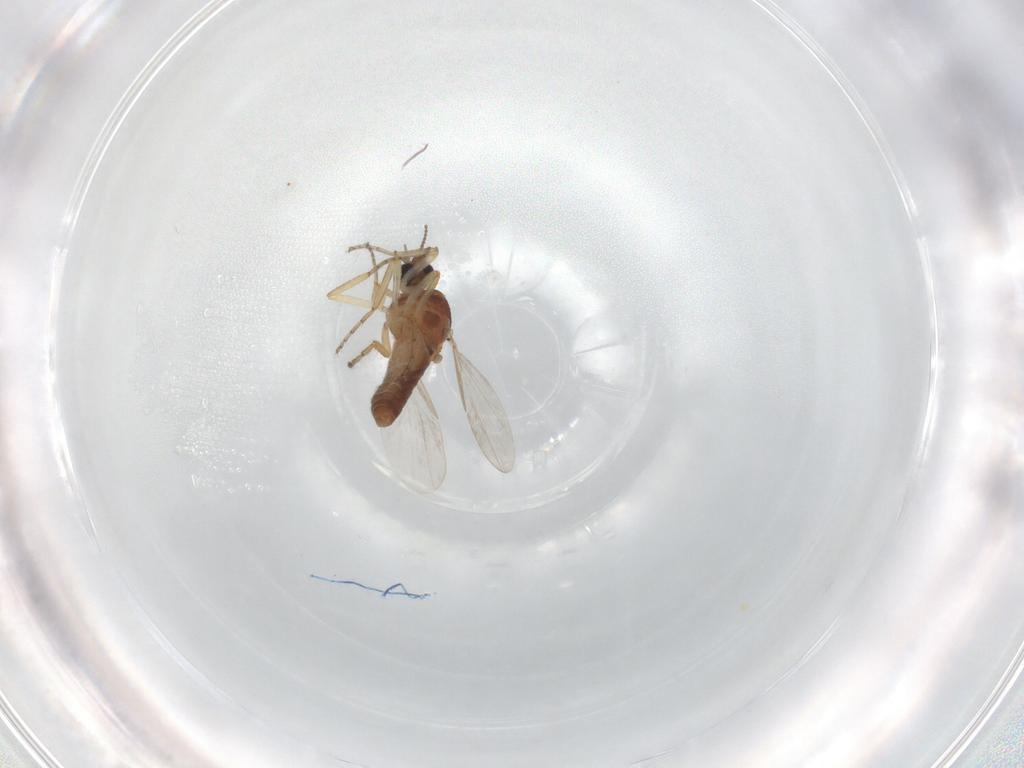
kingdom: Animalia
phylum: Arthropoda
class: Insecta
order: Diptera
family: Ceratopogonidae
